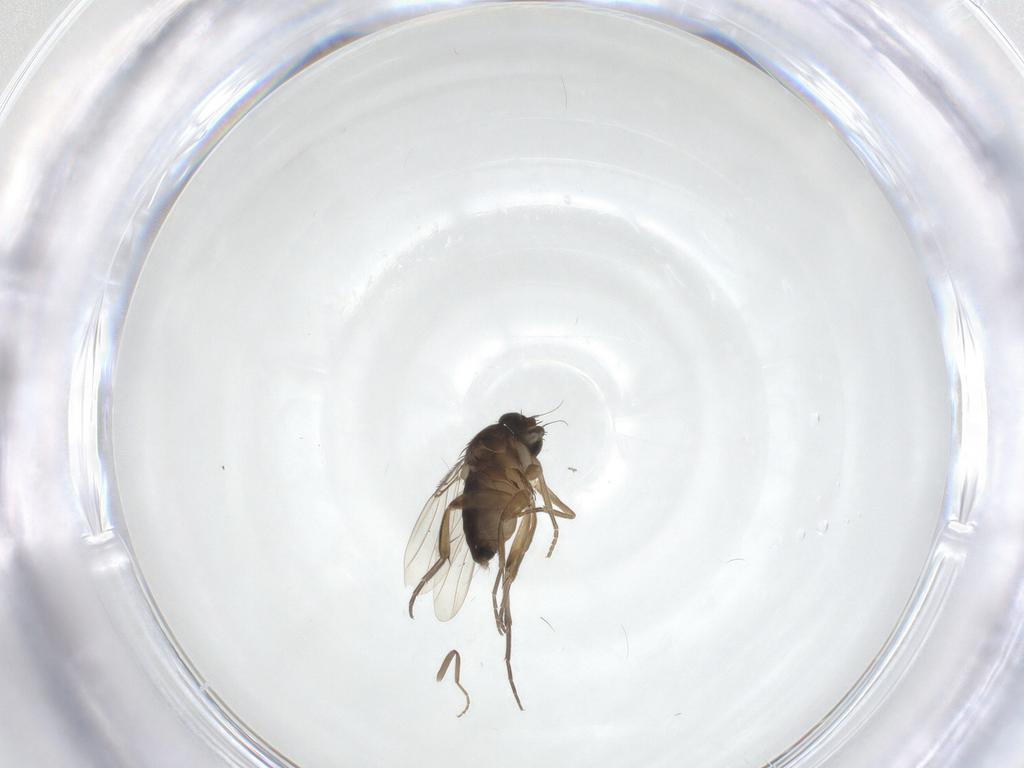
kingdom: Animalia
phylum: Arthropoda
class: Insecta
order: Diptera
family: Phoridae
